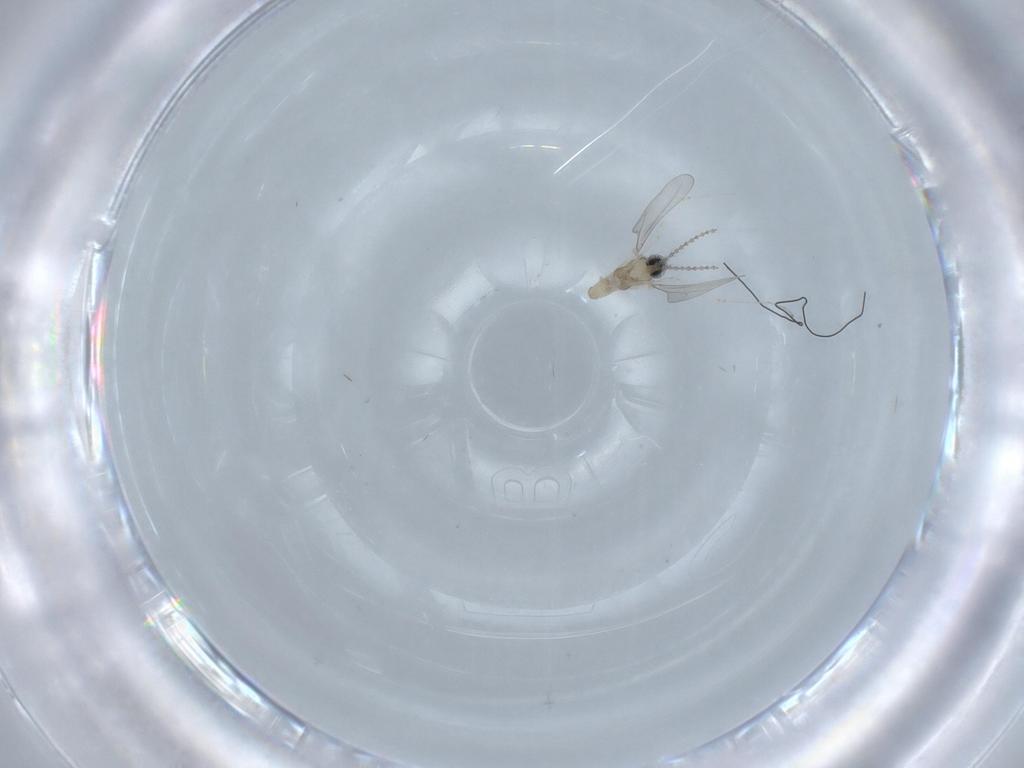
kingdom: Animalia
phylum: Arthropoda
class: Insecta
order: Diptera
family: Cecidomyiidae
